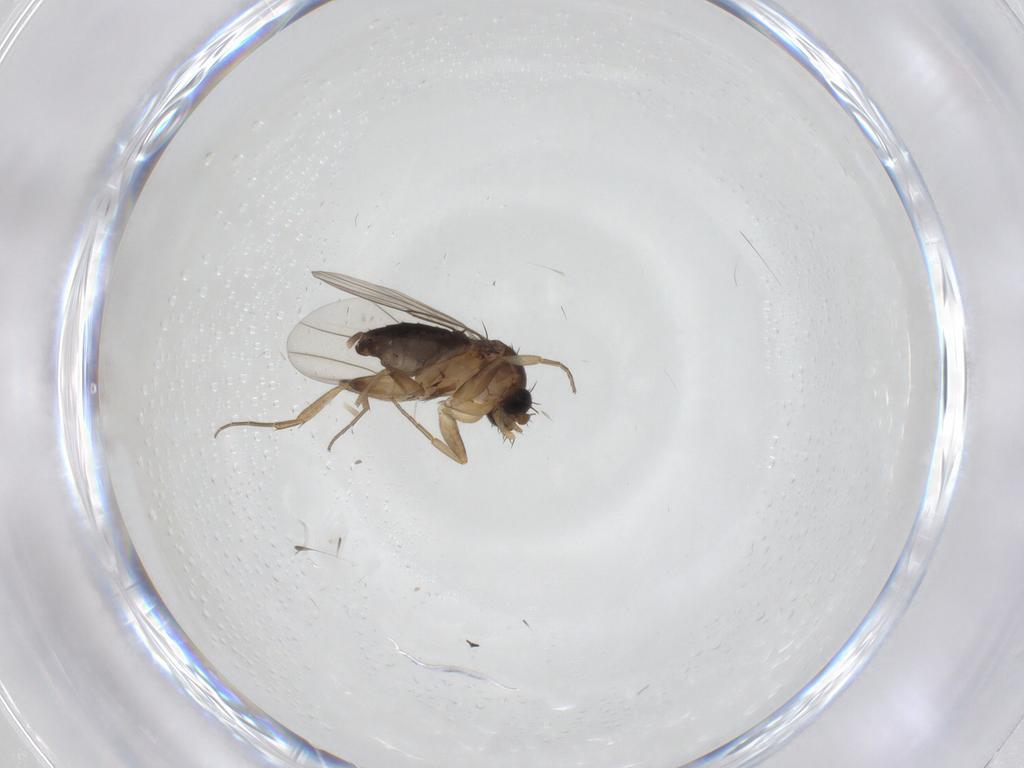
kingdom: Animalia
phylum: Arthropoda
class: Insecta
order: Diptera
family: Phoridae
